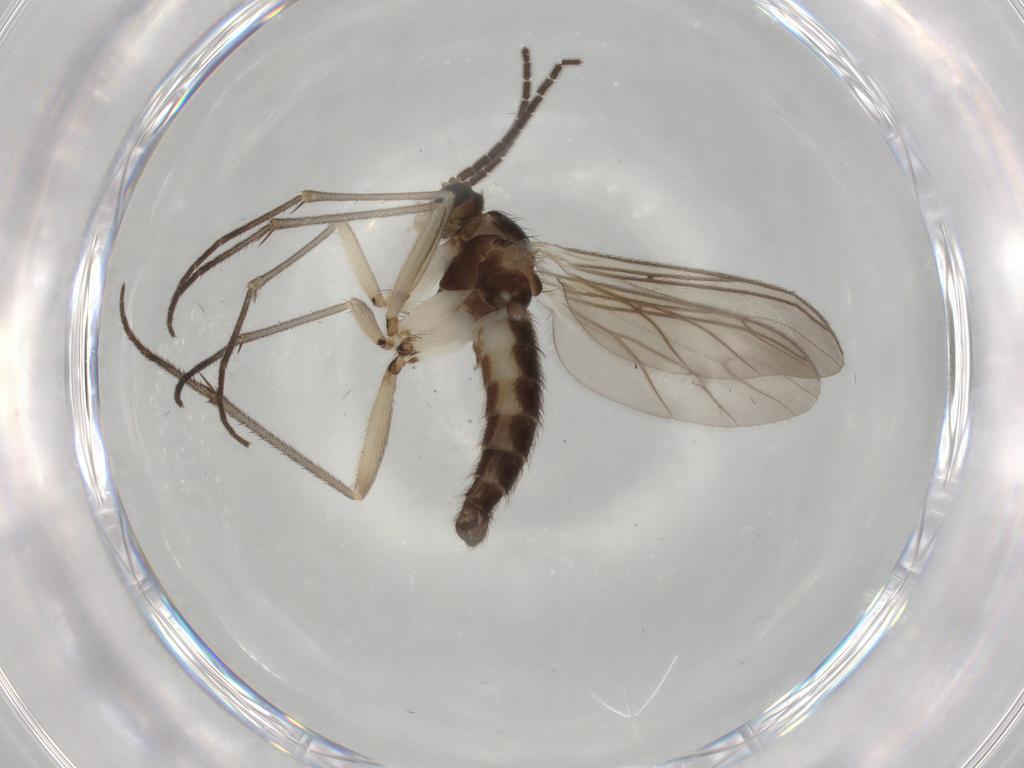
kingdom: Animalia
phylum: Arthropoda
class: Insecta
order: Diptera
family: Sciaridae
